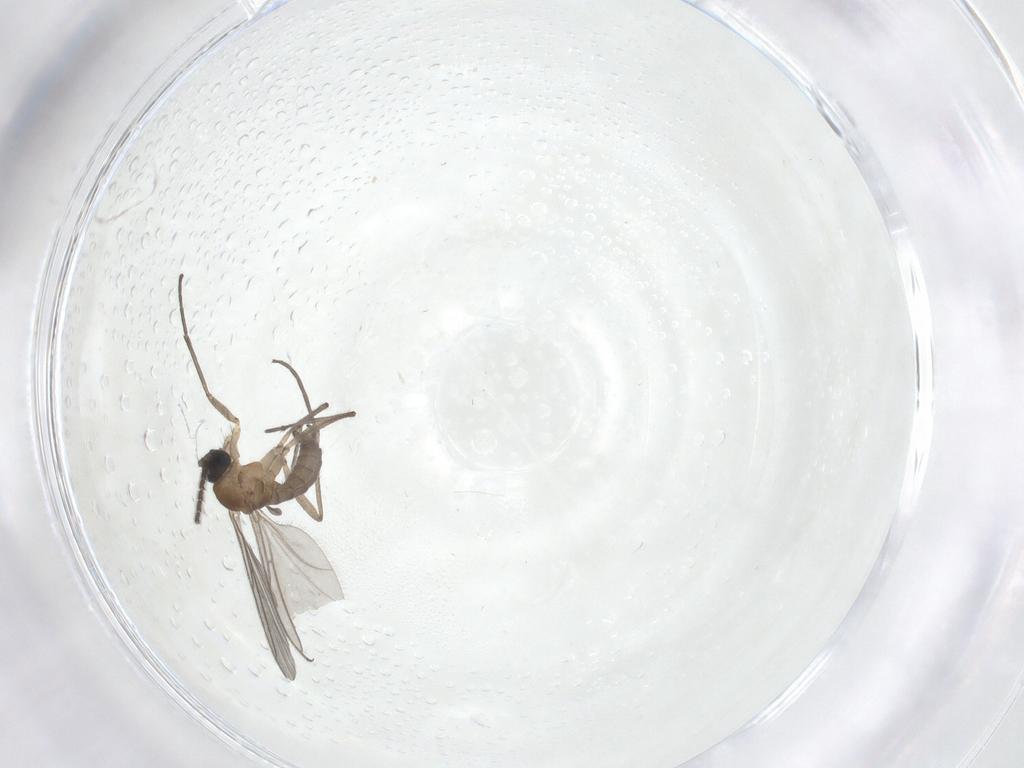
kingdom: Animalia
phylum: Arthropoda
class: Insecta
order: Diptera
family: Sciaridae
